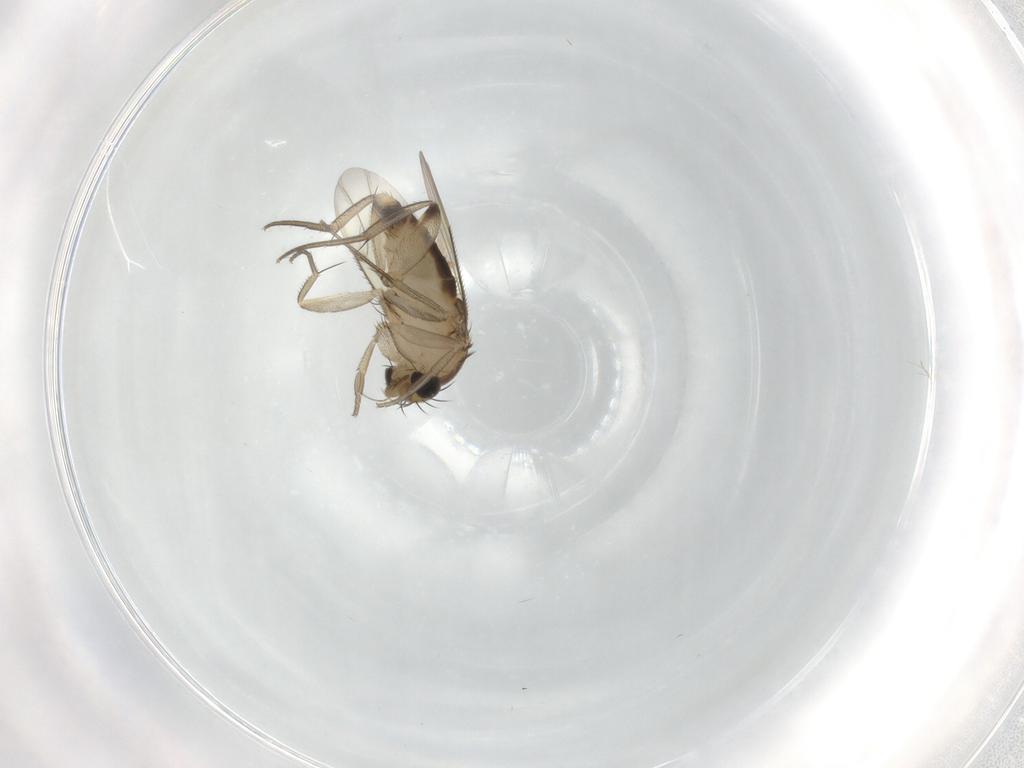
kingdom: Animalia
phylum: Arthropoda
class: Insecta
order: Diptera
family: Phoridae
